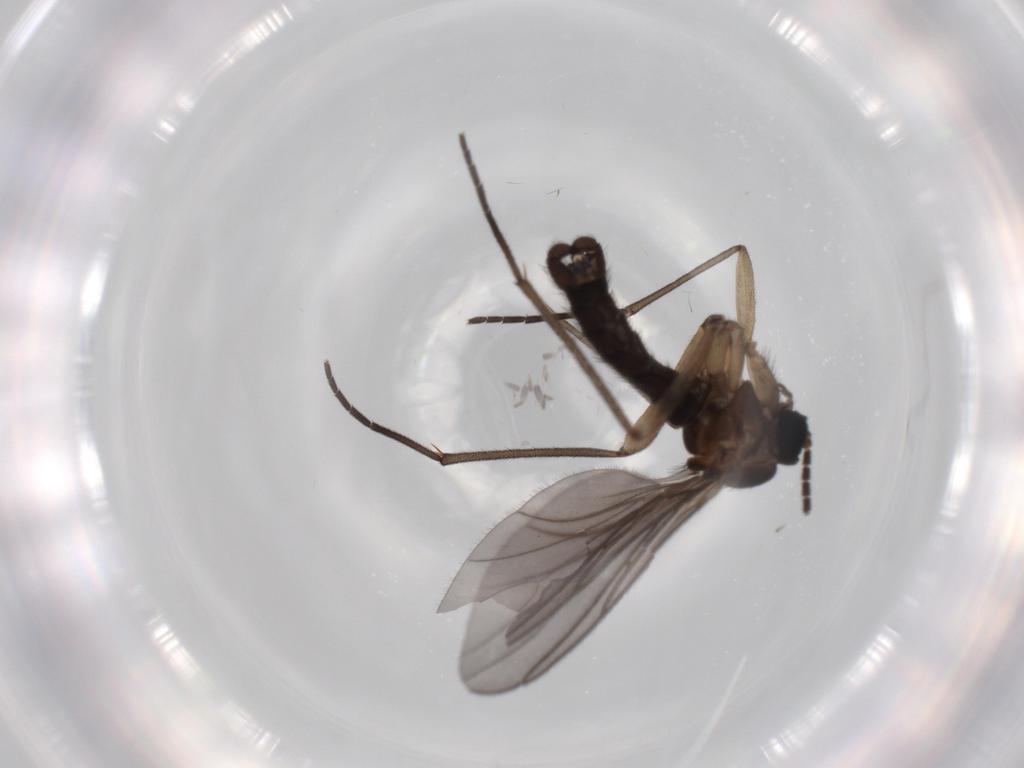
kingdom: Animalia
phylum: Arthropoda
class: Insecta
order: Diptera
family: Sciaridae
